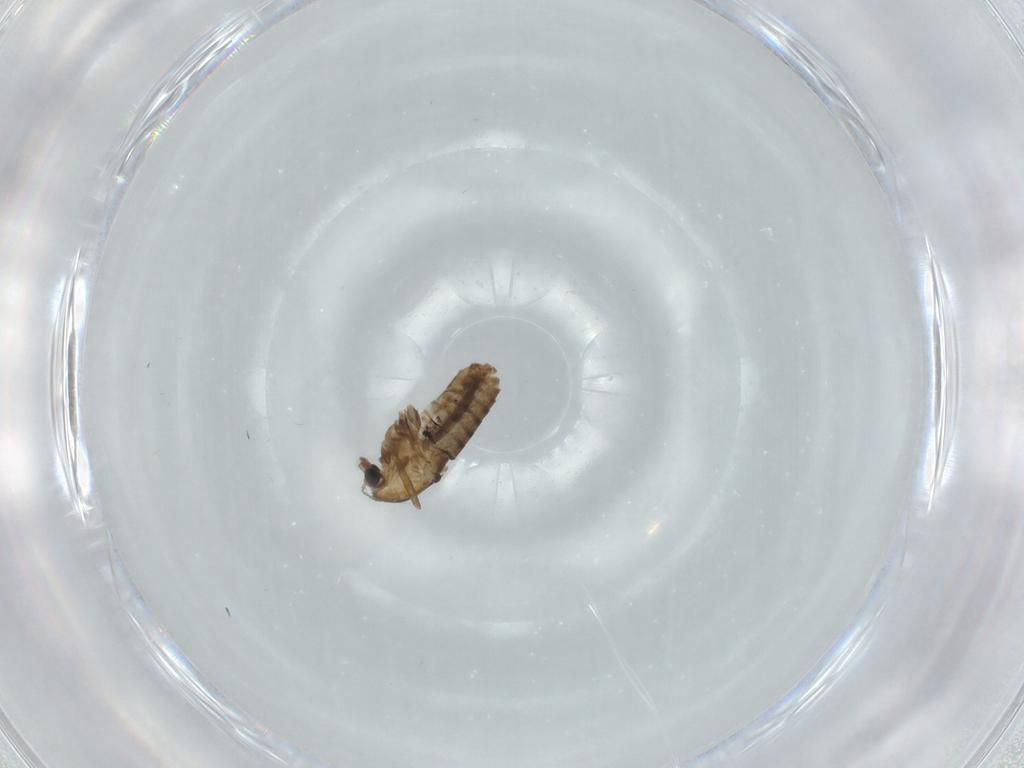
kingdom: Animalia
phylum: Arthropoda
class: Insecta
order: Diptera
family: Chironomidae
